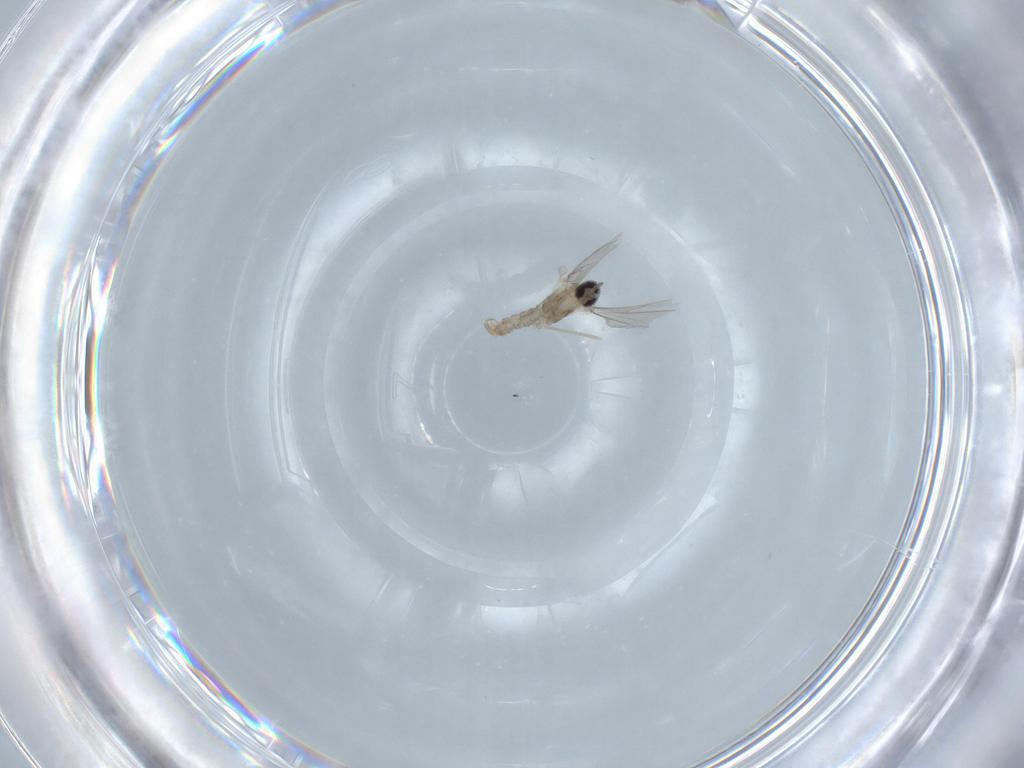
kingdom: Animalia
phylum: Arthropoda
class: Insecta
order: Diptera
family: Cecidomyiidae
